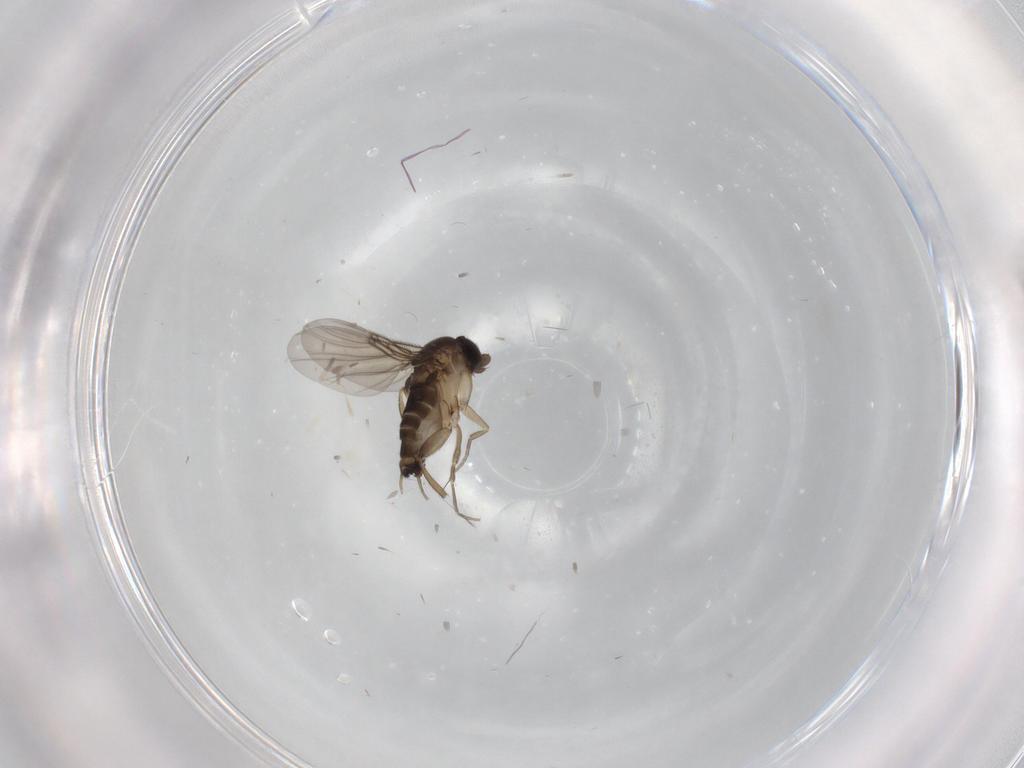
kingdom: Animalia
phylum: Arthropoda
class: Insecta
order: Diptera
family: Phoridae
